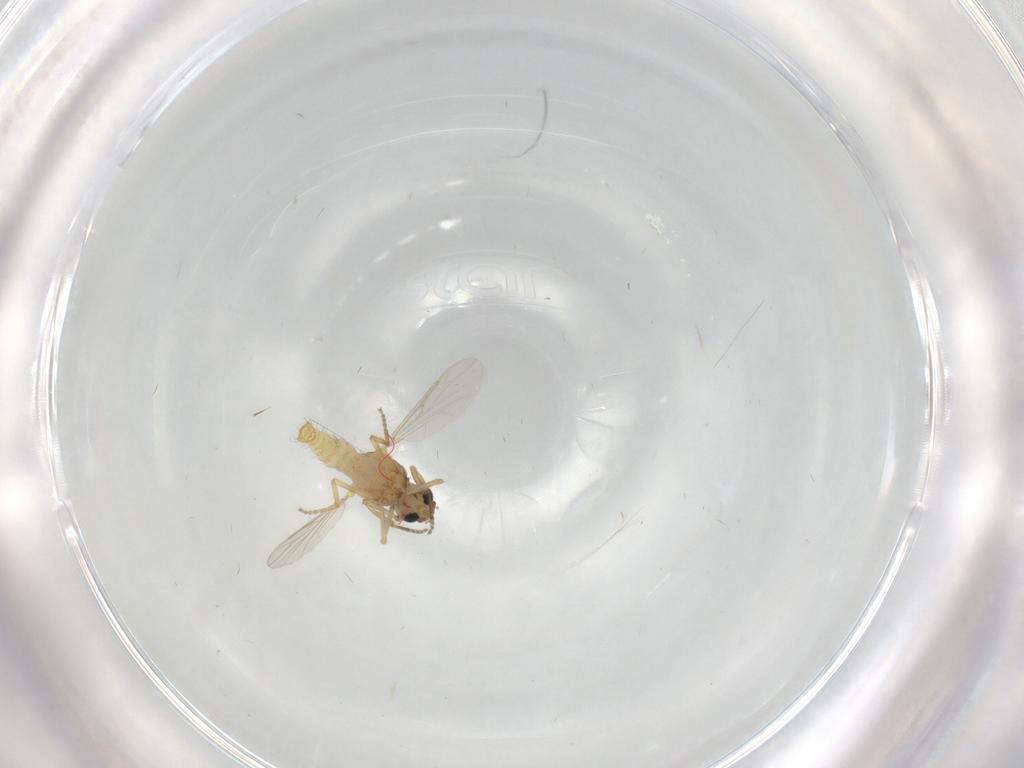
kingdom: Animalia
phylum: Arthropoda
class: Insecta
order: Diptera
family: Ceratopogonidae
